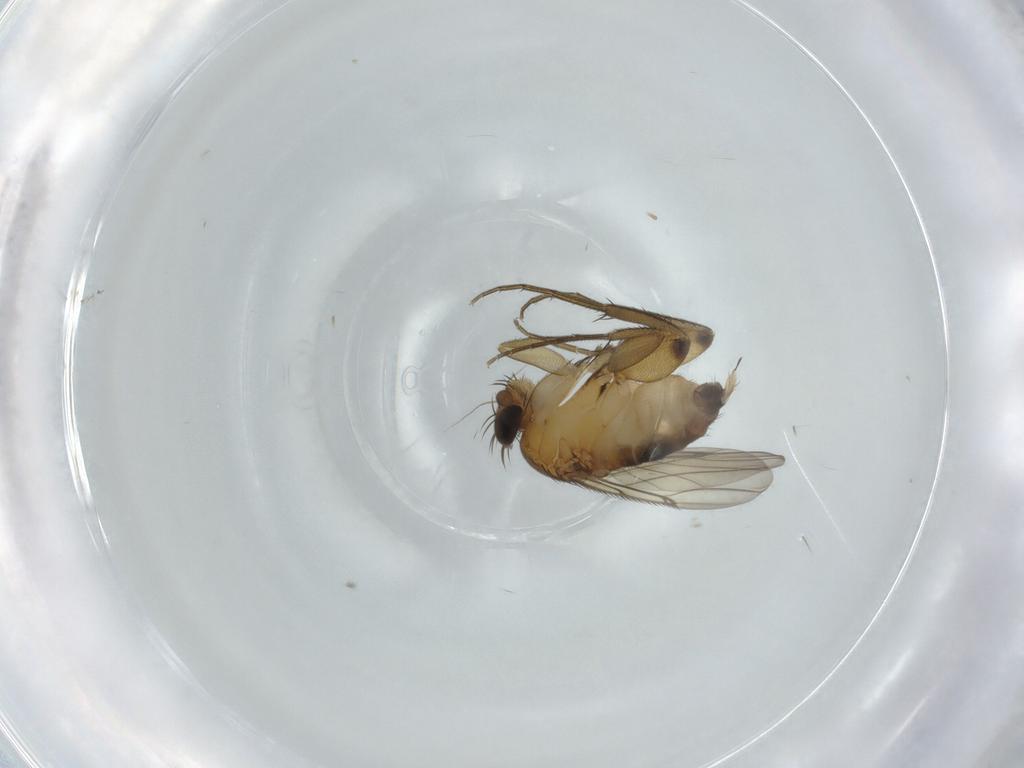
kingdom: Animalia
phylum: Arthropoda
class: Insecta
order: Diptera
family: Phoridae
